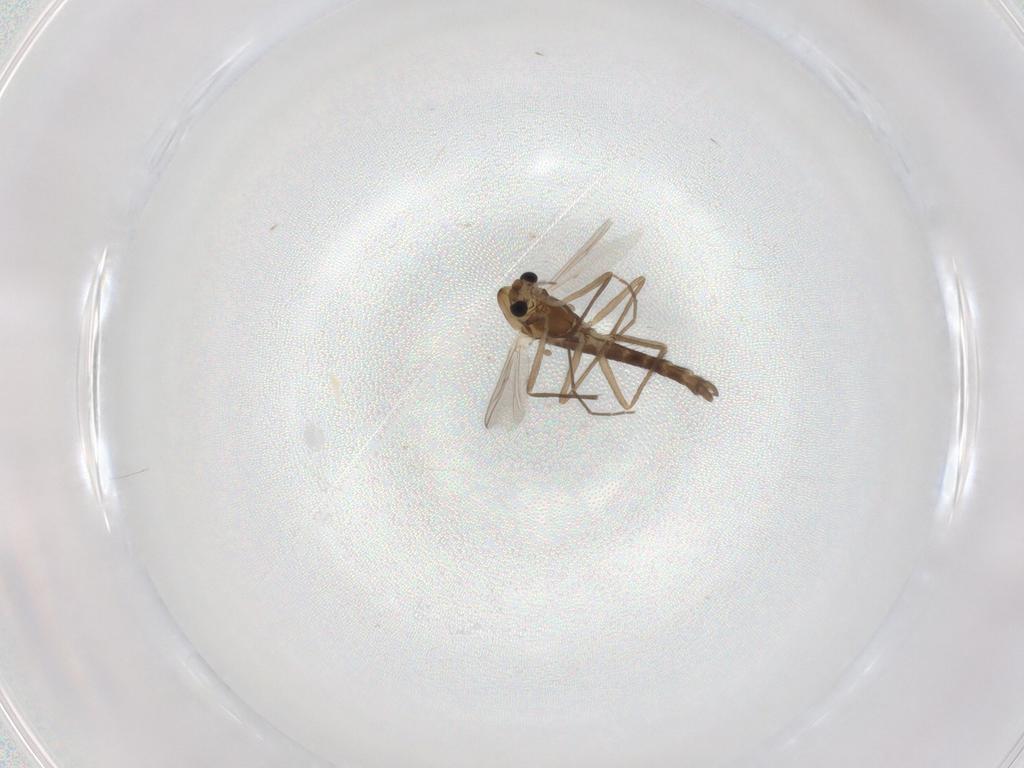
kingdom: Animalia
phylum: Arthropoda
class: Insecta
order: Diptera
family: Chironomidae
